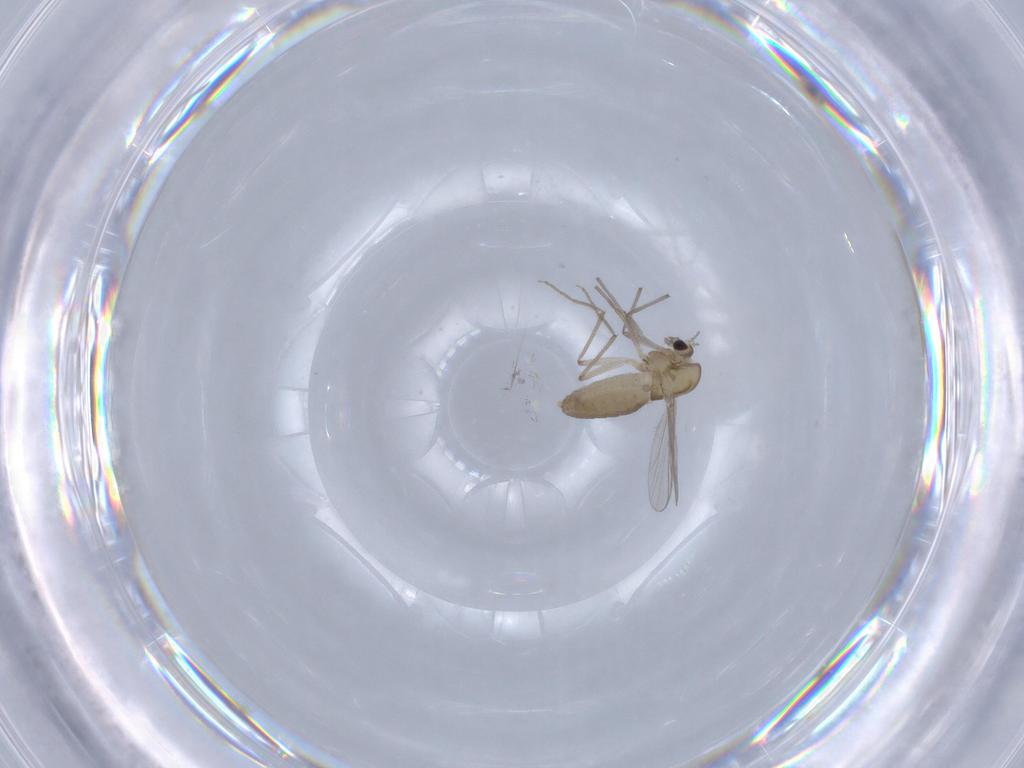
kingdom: Animalia
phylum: Arthropoda
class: Insecta
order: Diptera
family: Chironomidae
